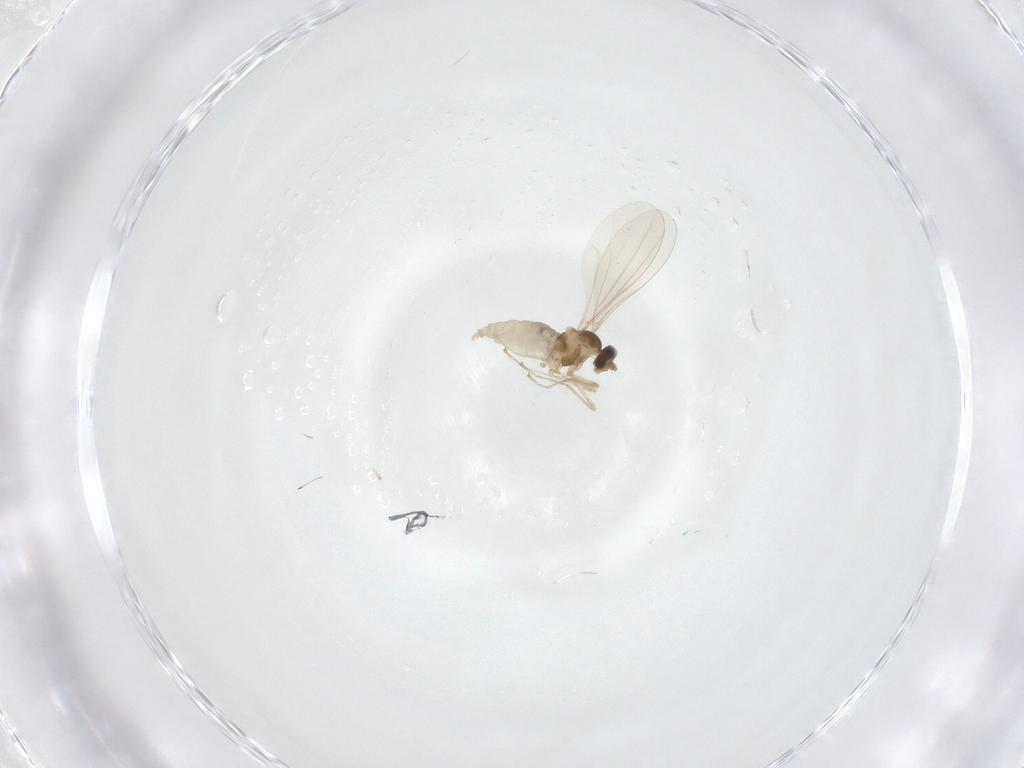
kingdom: Animalia
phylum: Arthropoda
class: Insecta
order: Diptera
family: Cecidomyiidae
